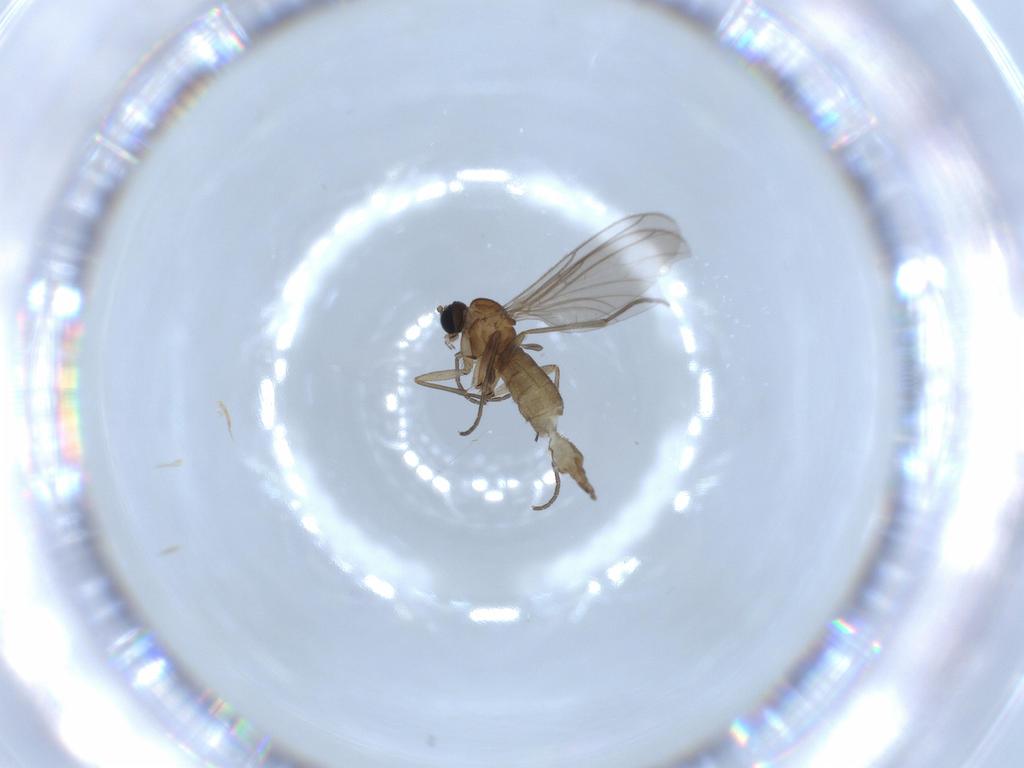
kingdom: Animalia
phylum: Arthropoda
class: Insecta
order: Diptera
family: Sciaridae
